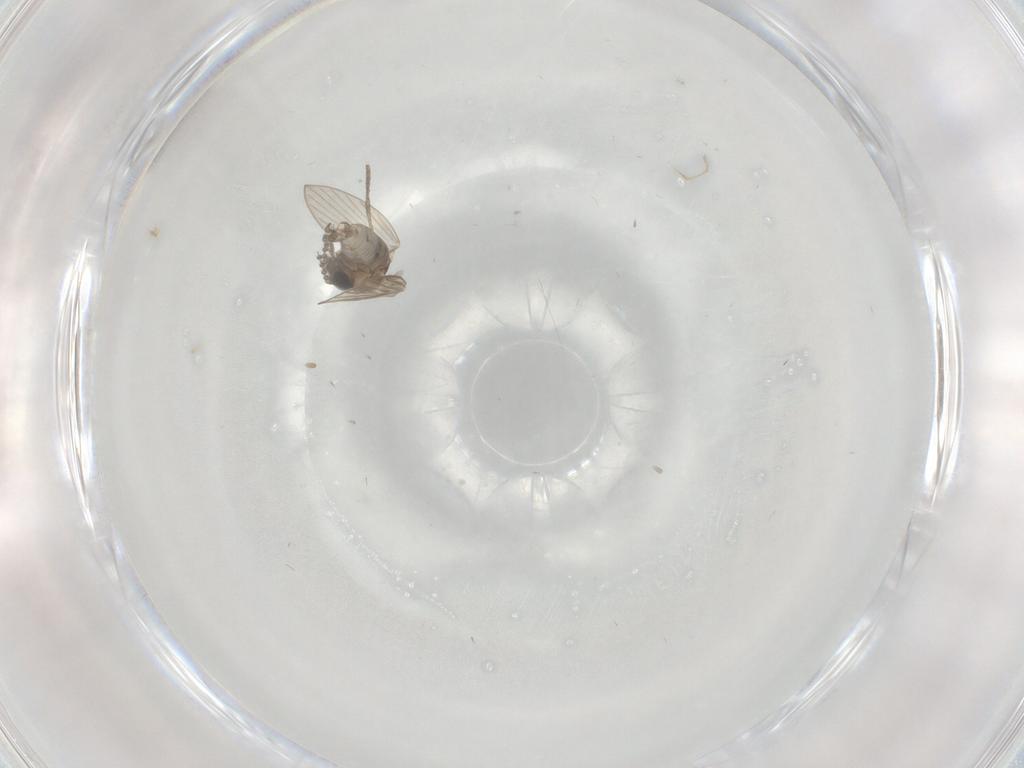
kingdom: Animalia
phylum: Arthropoda
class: Insecta
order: Diptera
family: Psychodidae
